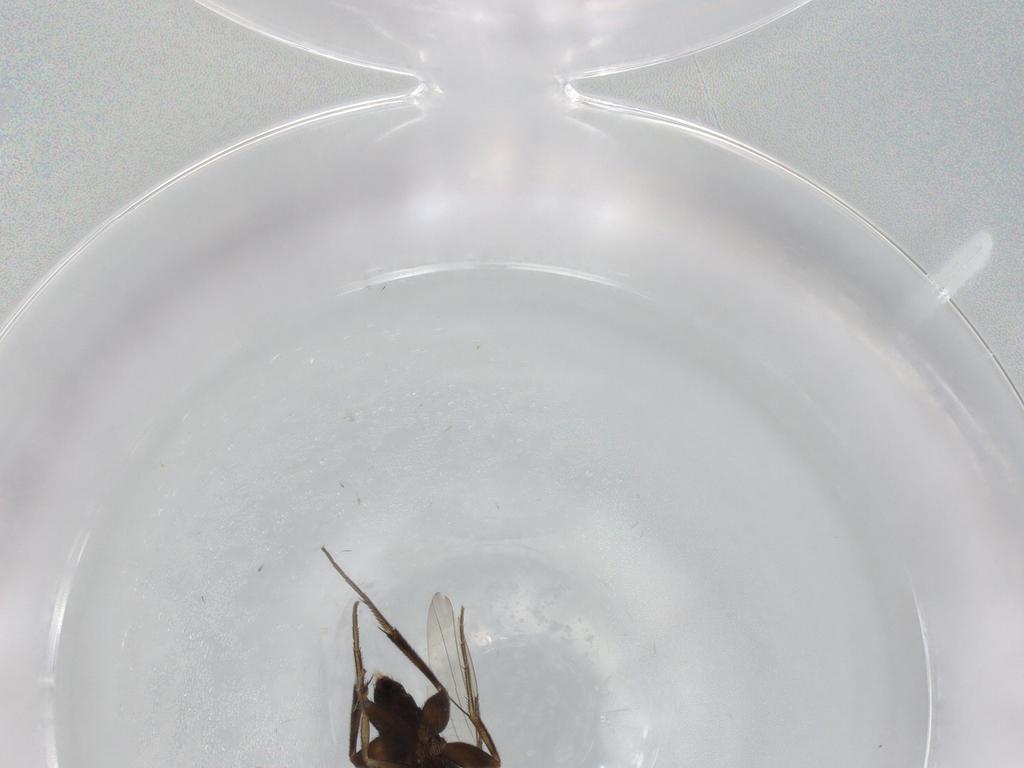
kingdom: Animalia
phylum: Arthropoda
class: Insecta
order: Diptera
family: Phoridae
